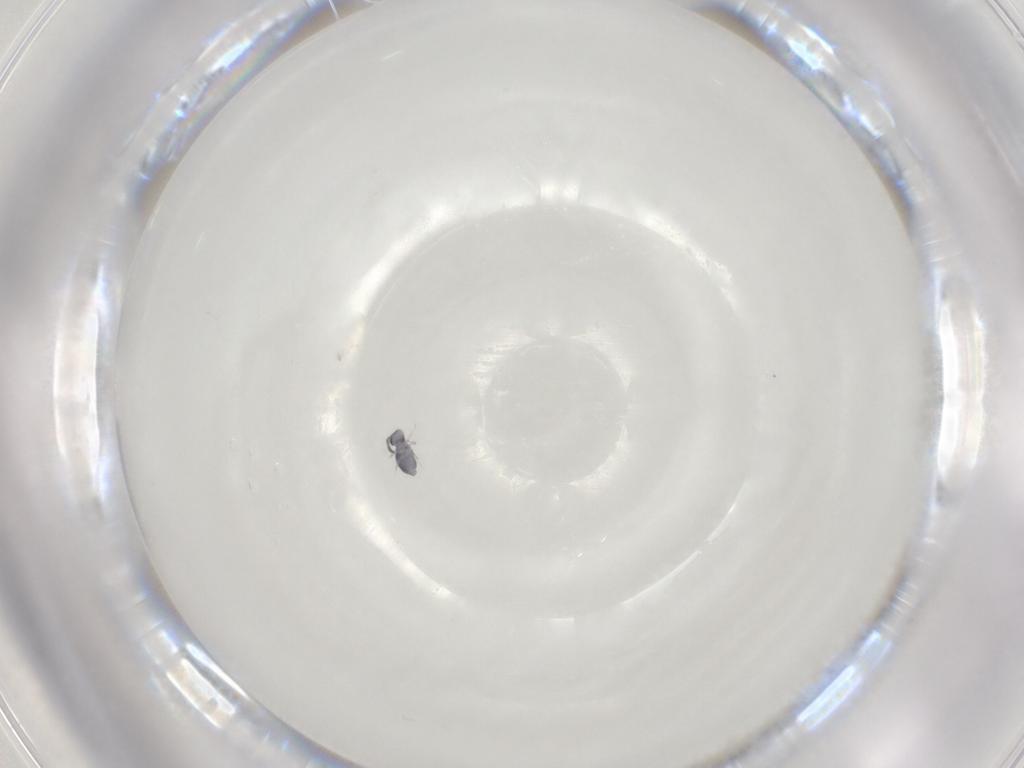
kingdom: Animalia
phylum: Arthropoda
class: Collembola
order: Symphypleona
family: Katiannidae
